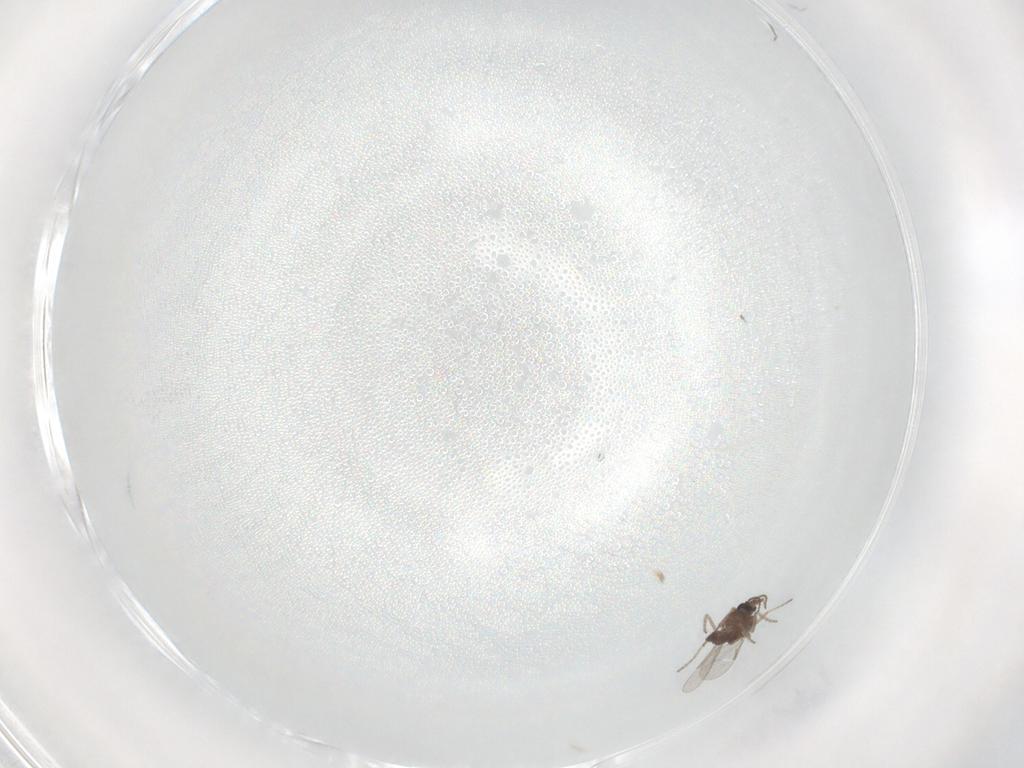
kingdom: Animalia
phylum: Arthropoda
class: Insecta
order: Diptera
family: Ceratopogonidae
